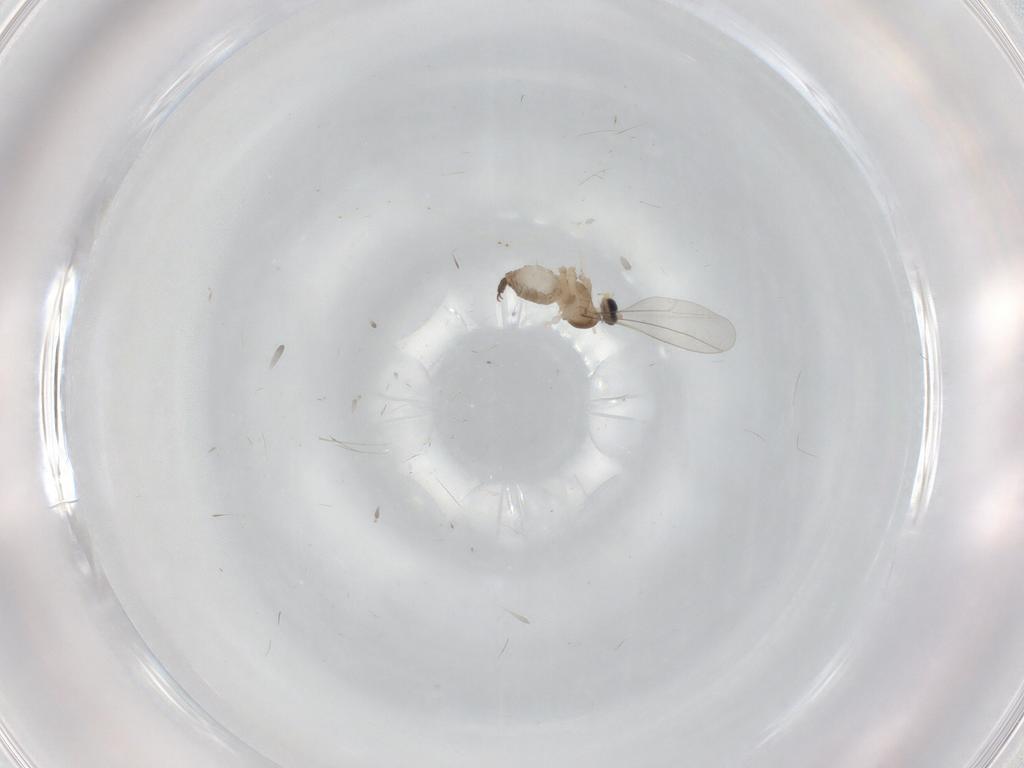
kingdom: Animalia
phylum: Arthropoda
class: Insecta
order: Diptera
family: Cecidomyiidae
